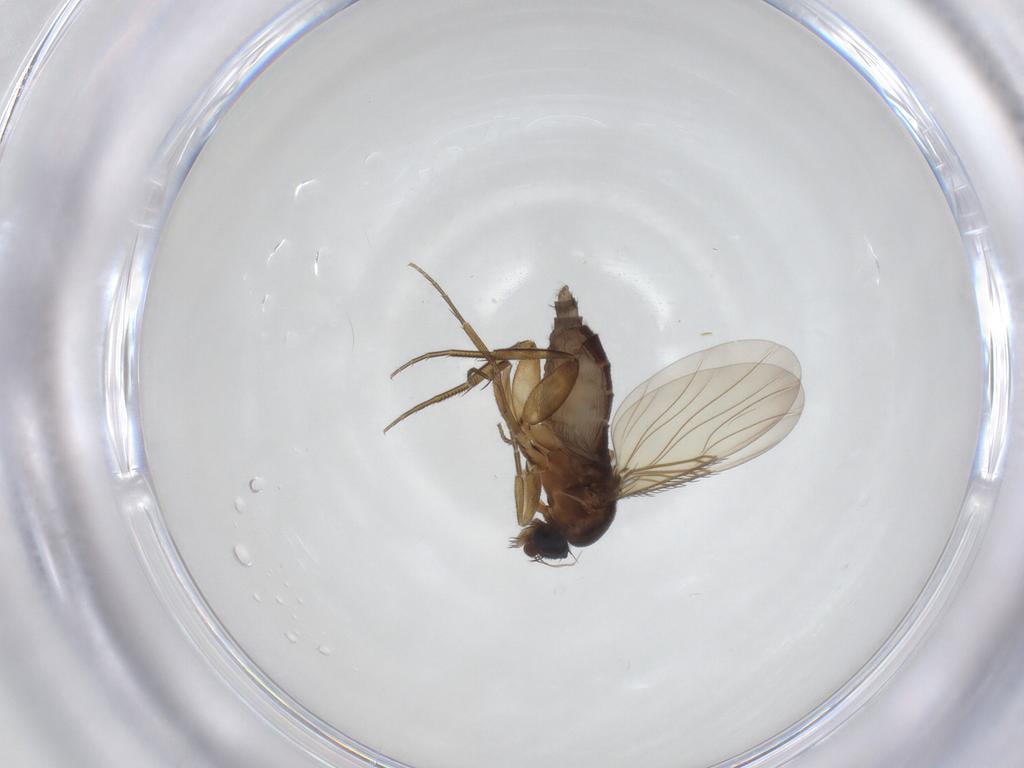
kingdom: Animalia
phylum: Arthropoda
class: Insecta
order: Diptera
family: Phoridae
